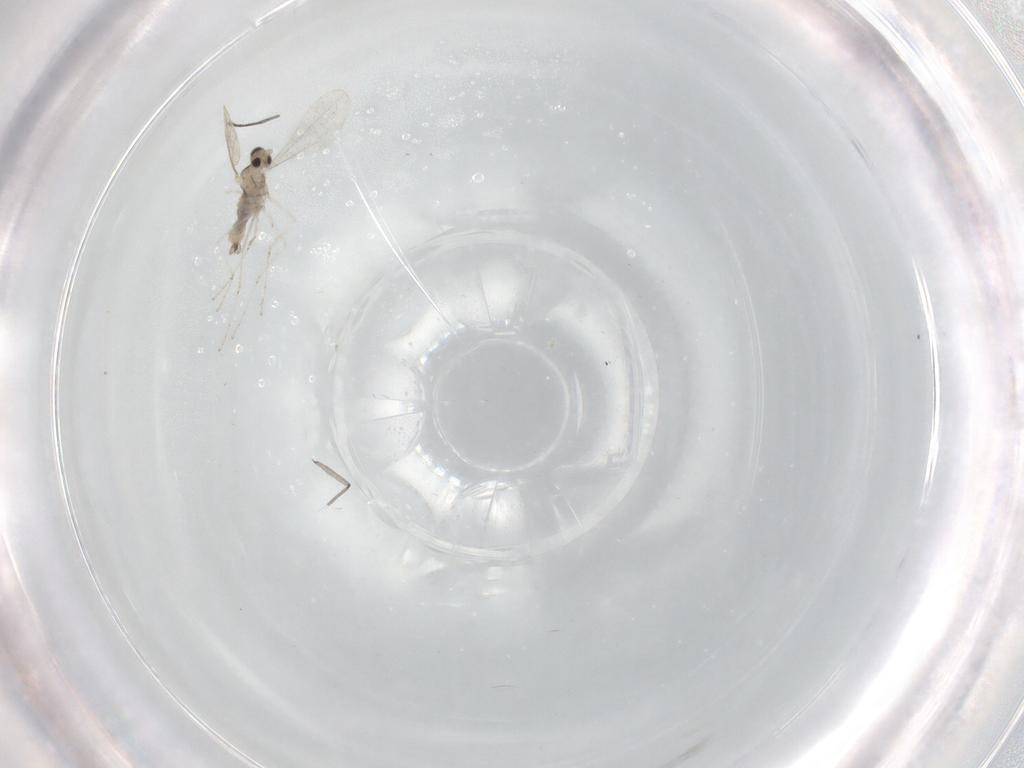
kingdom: Animalia
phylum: Arthropoda
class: Insecta
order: Diptera
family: Cecidomyiidae
